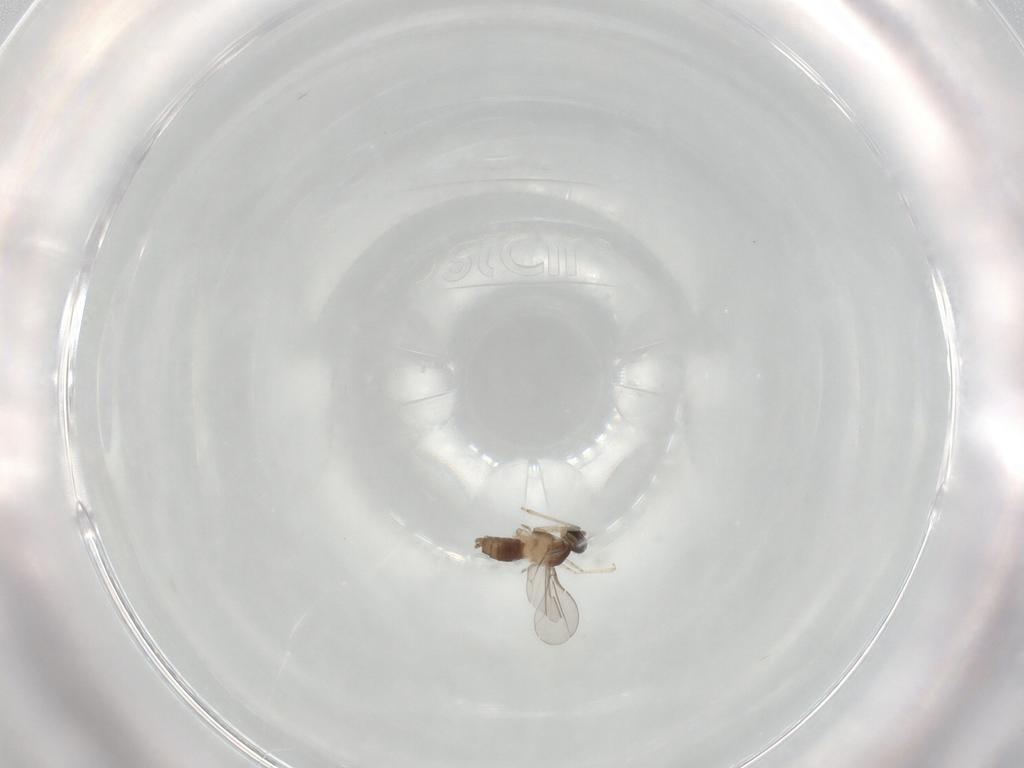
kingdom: Animalia
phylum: Arthropoda
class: Insecta
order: Diptera
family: Cecidomyiidae
